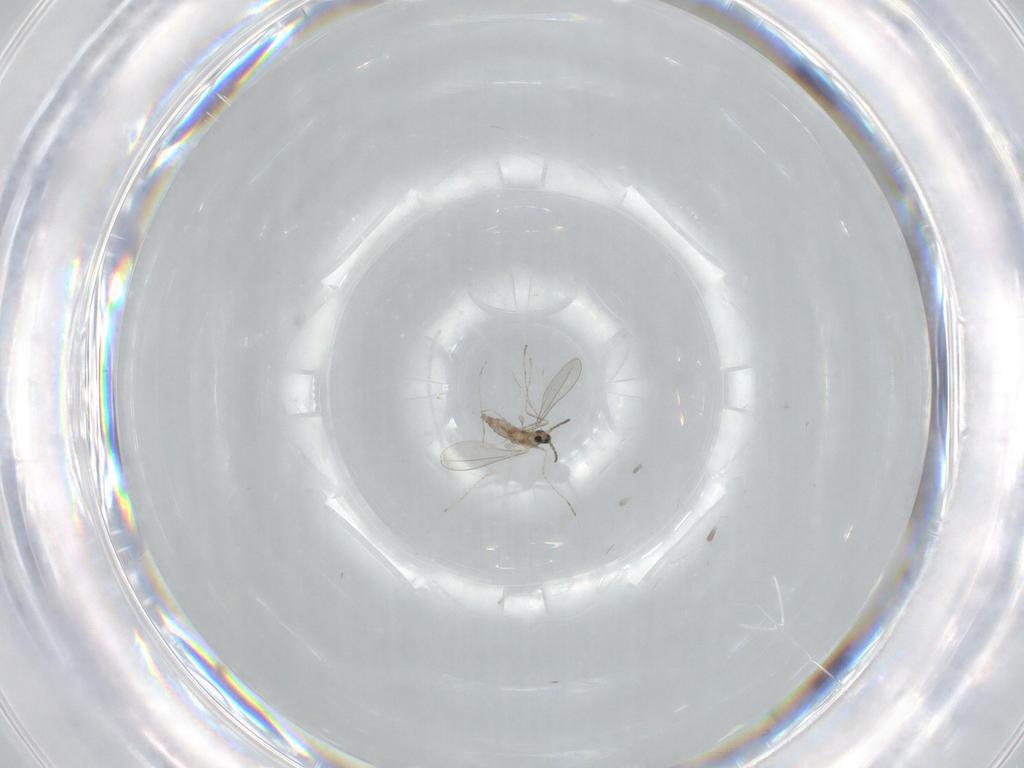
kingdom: Animalia
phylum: Arthropoda
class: Insecta
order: Diptera
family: Cecidomyiidae
